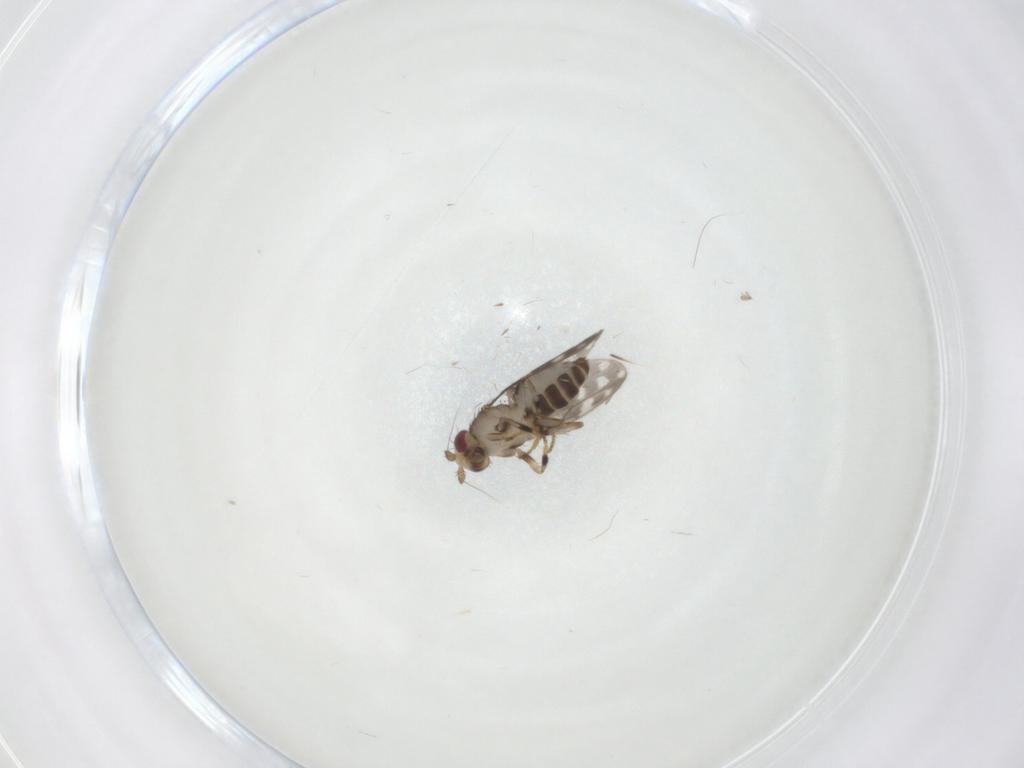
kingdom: Animalia
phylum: Arthropoda
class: Insecta
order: Diptera
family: Sphaeroceridae
